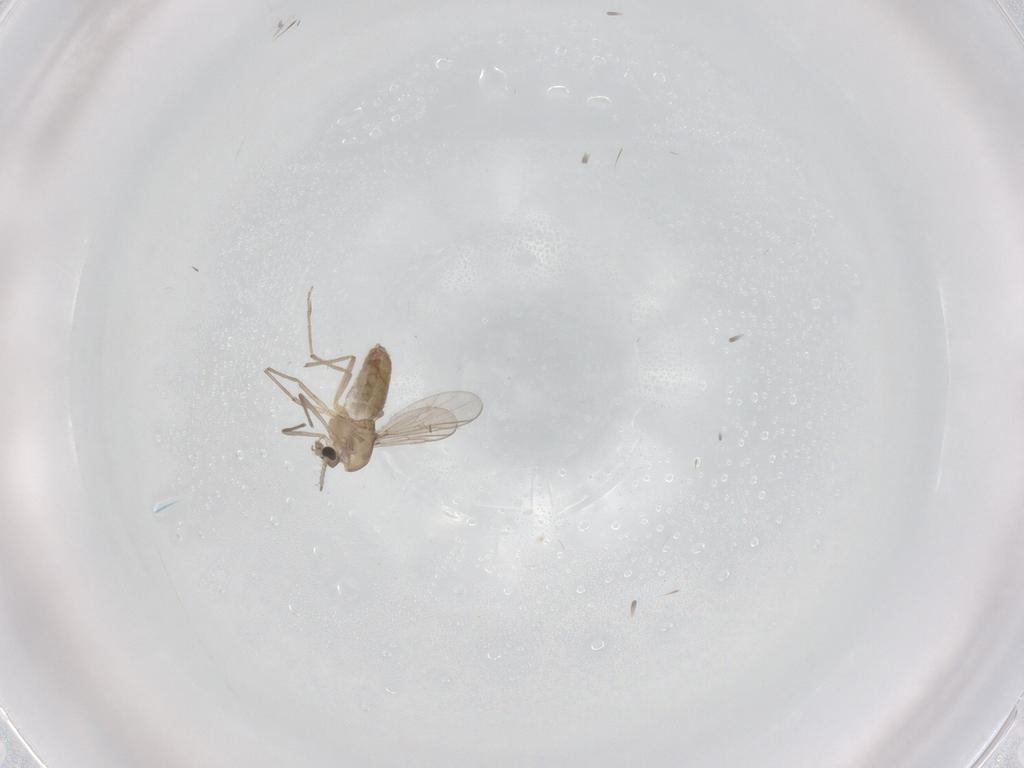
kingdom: Animalia
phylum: Arthropoda
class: Insecta
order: Diptera
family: Chironomidae
